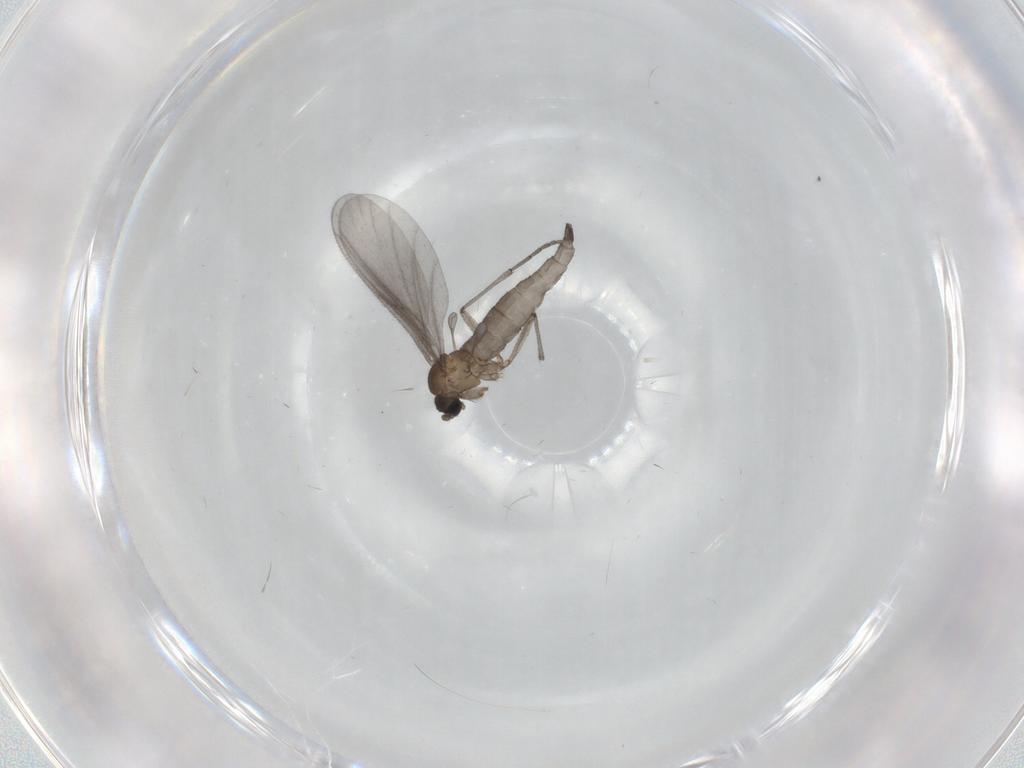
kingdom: Animalia
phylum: Arthropoda
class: Insecta
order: Diptera
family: Sciaridae
